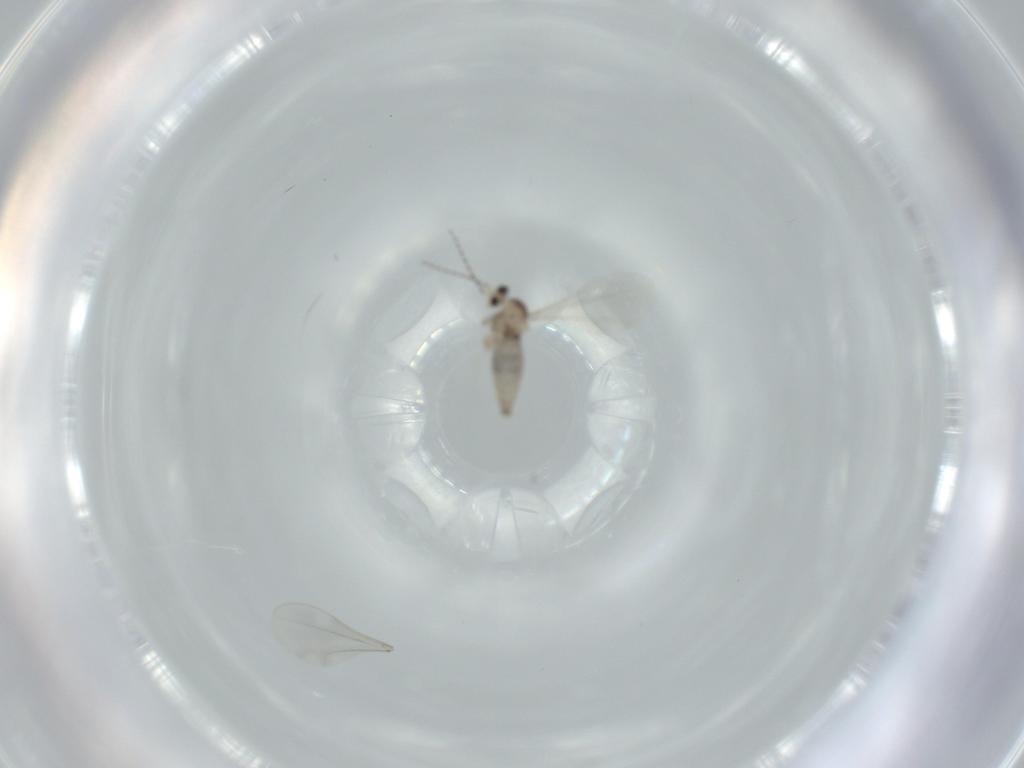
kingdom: Animalia
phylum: Arthropoda
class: Insecta
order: Diptera
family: Cecidomyiidae
